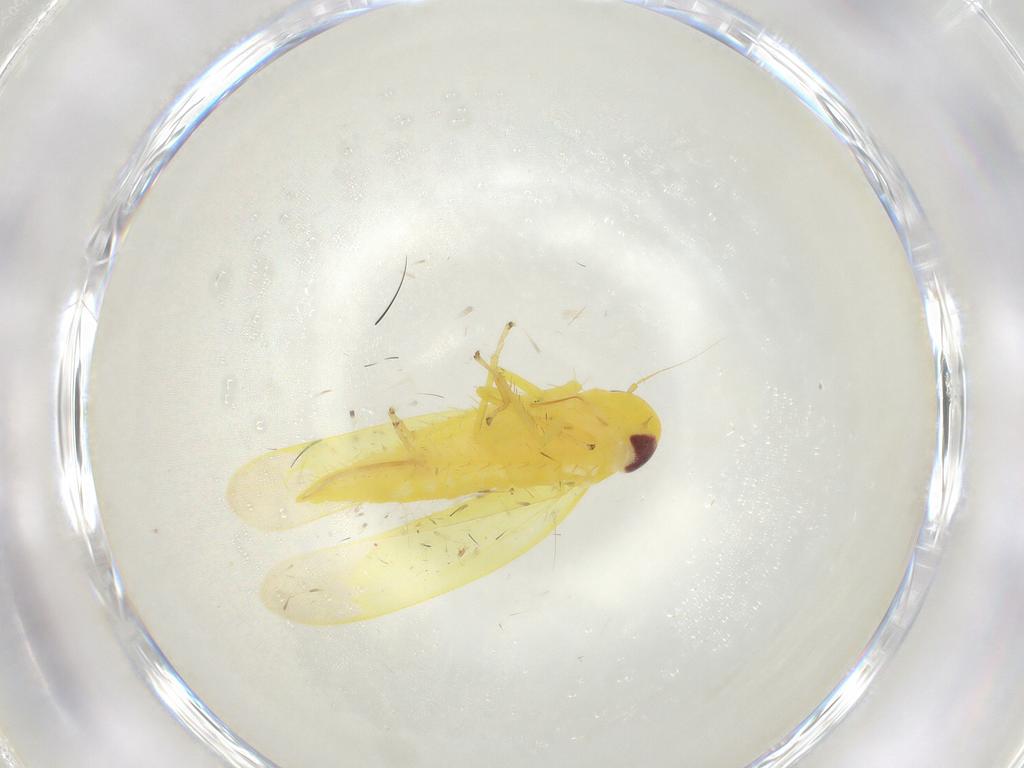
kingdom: Animalia
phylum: Arthropoda
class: Insecta
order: Hemiptera
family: Cicadellidae
